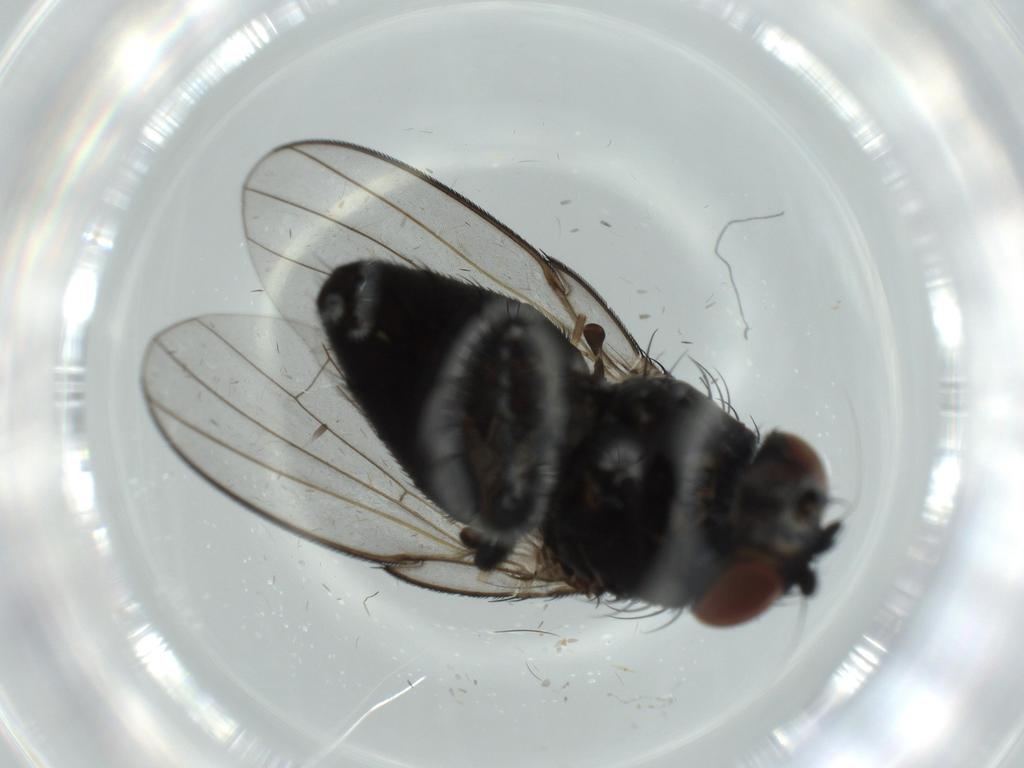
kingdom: Animalia
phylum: Arthropoda
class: Insecta
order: Diptera
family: Milichiidae
